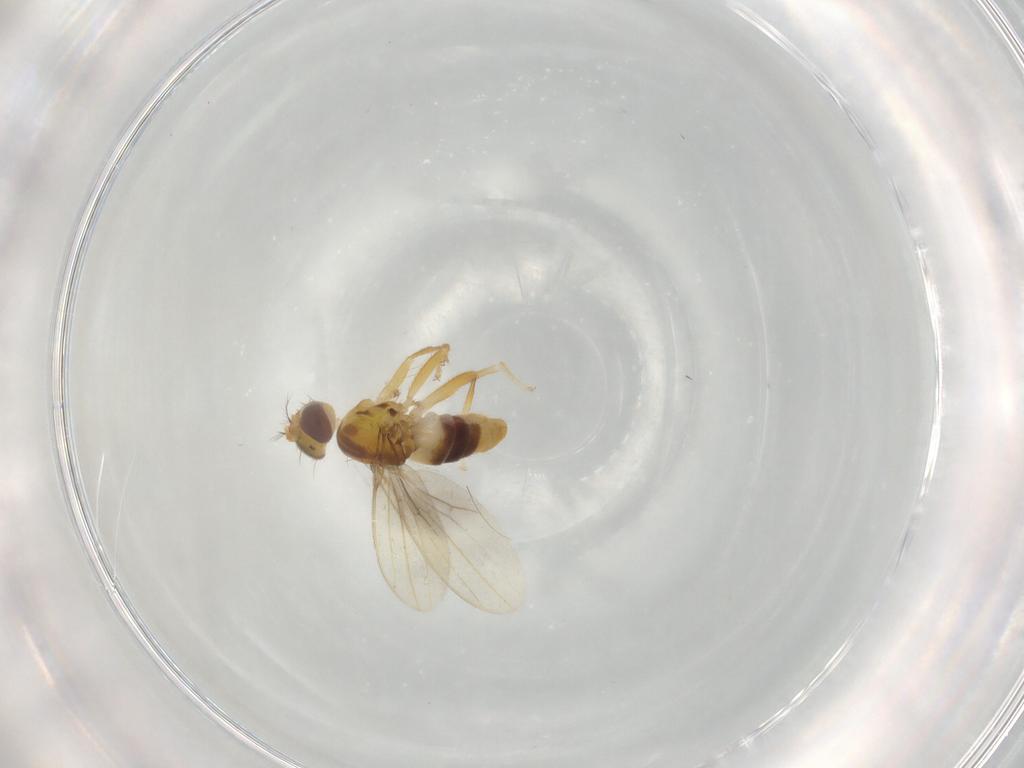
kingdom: Animalia
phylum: Arthropoda
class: Insecta
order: Diptera
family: Periscelididae
